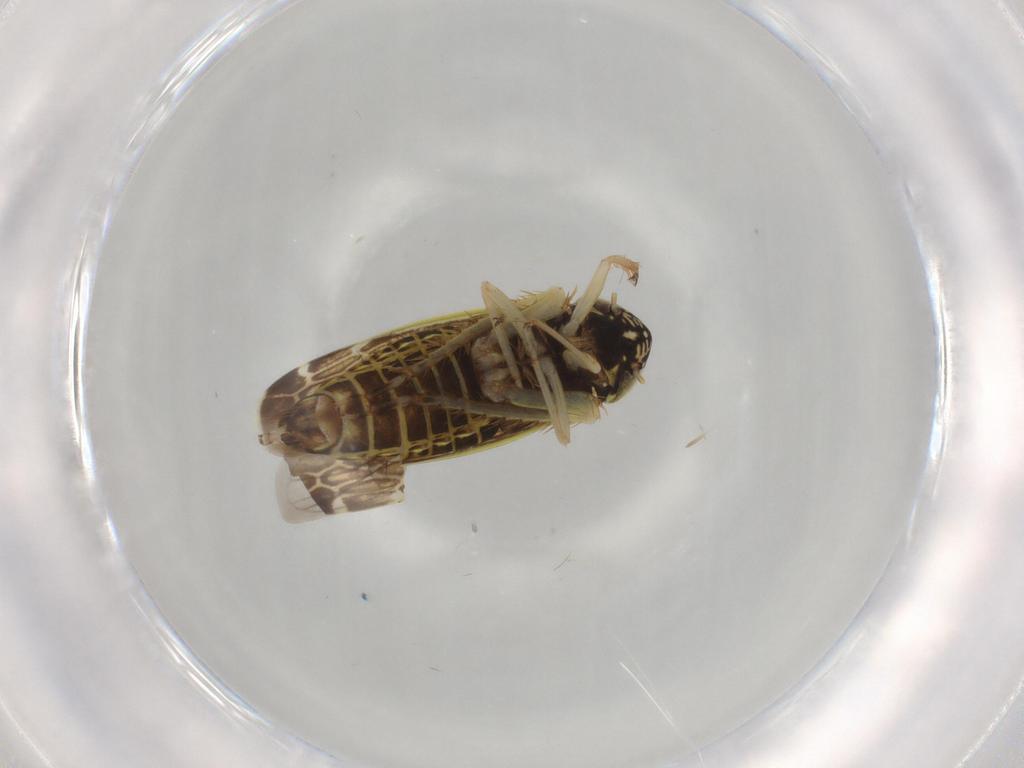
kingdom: Animalia
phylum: Arthropoda
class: Insecta
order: Hemiptera
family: Cicadellidae
